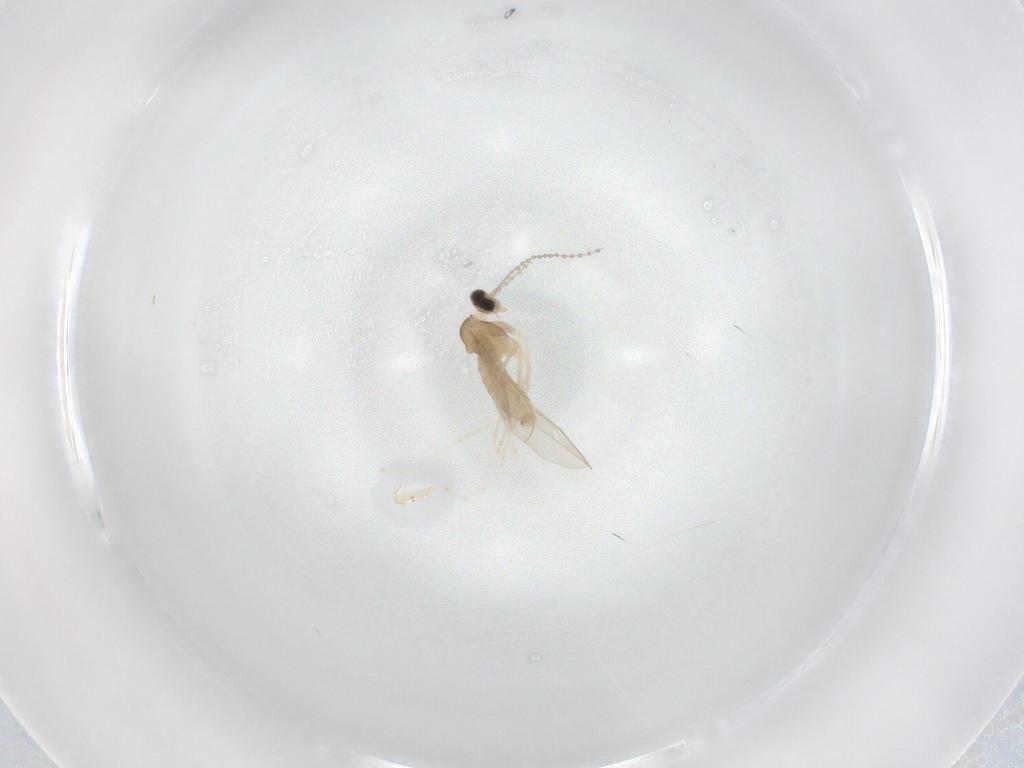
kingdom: Animalia
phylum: Arthropoda
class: Insecta
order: Diptera
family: Cecidomyiidae
